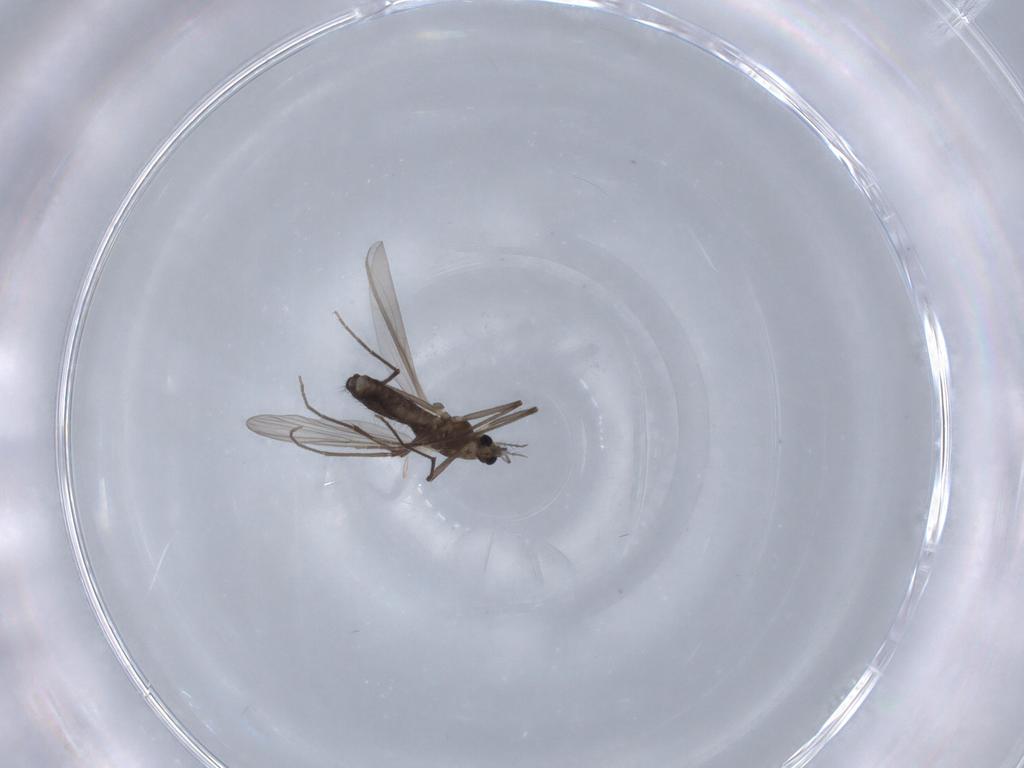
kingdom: Animalia
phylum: Arthropoda
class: Insecta
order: Diptera
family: Chironomidae
